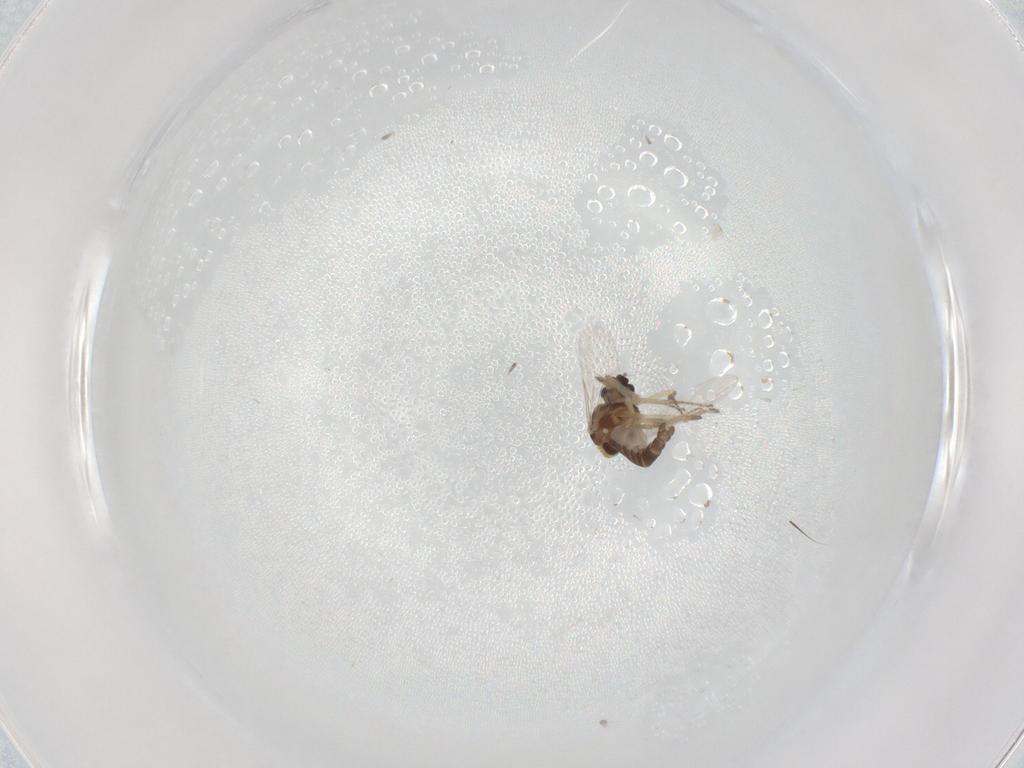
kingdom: Animalia
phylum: Arthropoda
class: Insecta
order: Diptera
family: Ceratopogonidae
